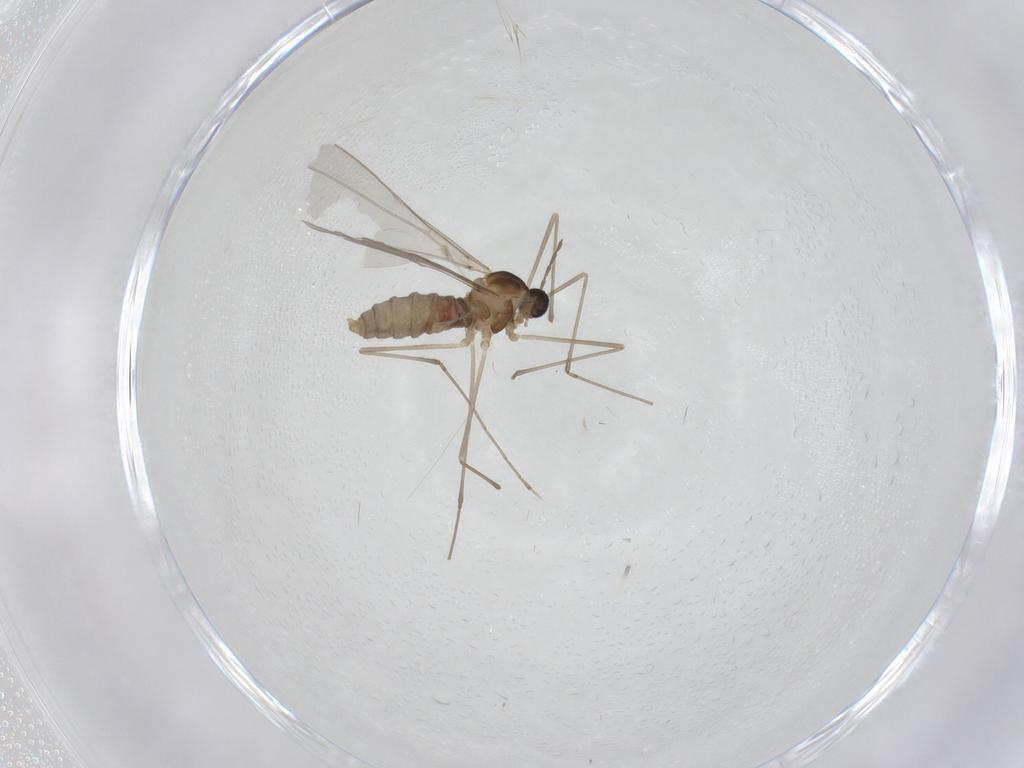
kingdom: Animalia
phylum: Arthropoda
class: Insecta
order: Diptera
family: Cecidomyiidae
